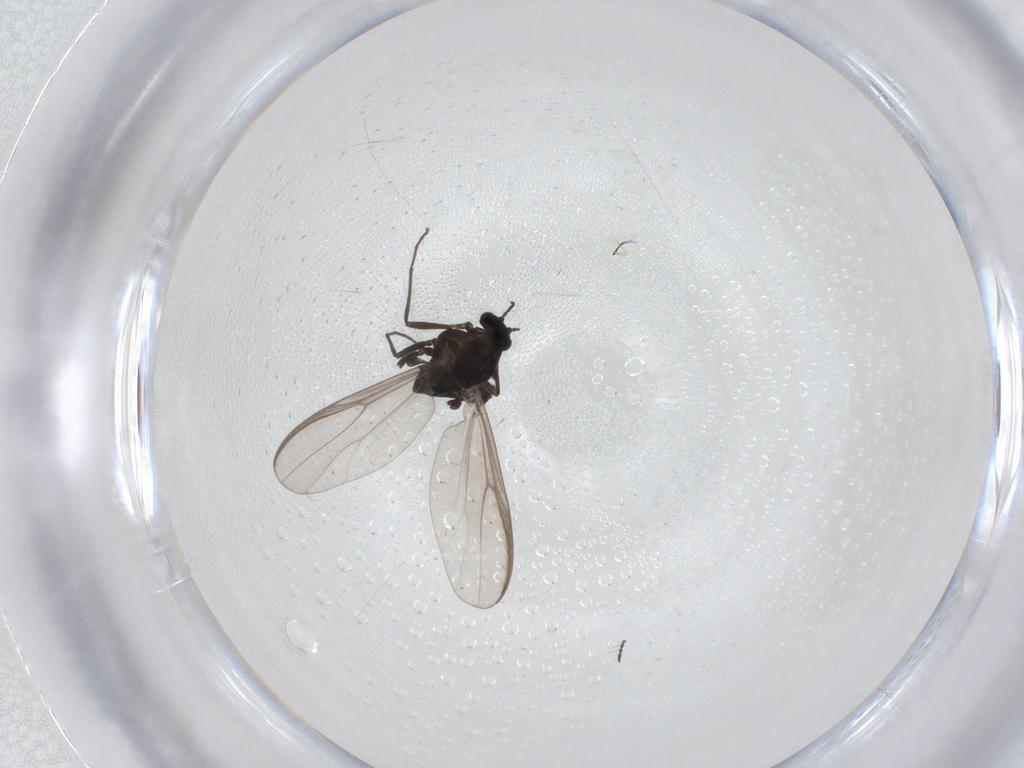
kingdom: Animalia
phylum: Arthropoda
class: Insecta
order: Diptera
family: Chironomidae
